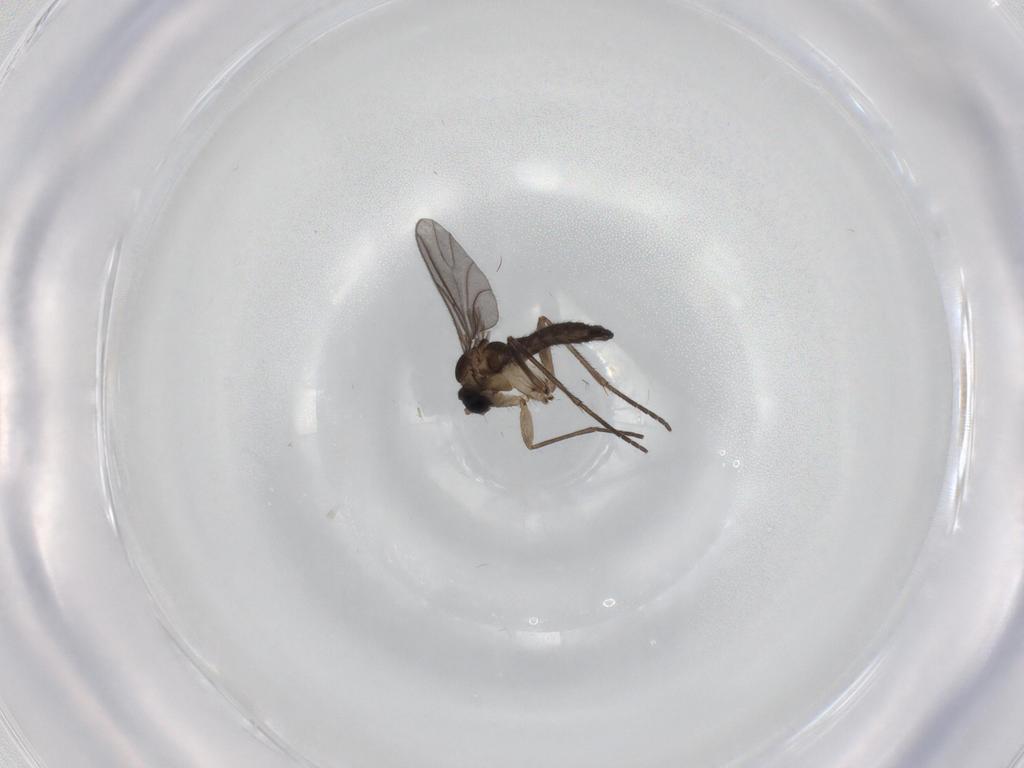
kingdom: Animalia
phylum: Arthropoda
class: Insecta
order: Diptera
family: Sciaridae
